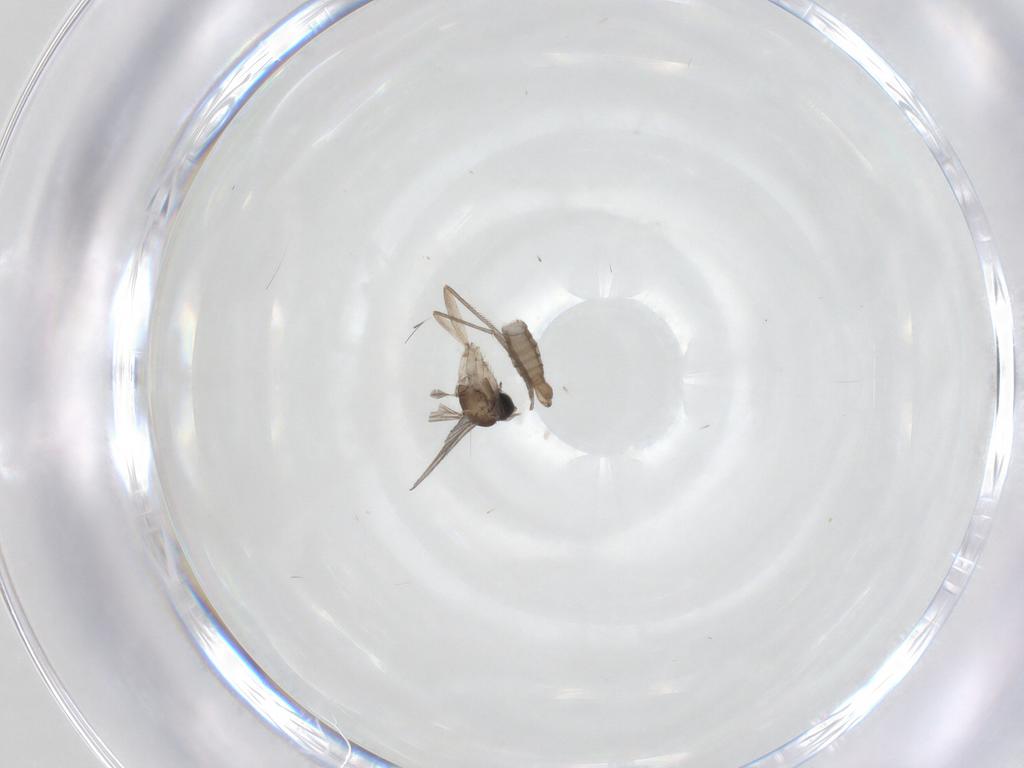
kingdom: Animalia
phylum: Arthropoda
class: Insecta
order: Diptera
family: Sciaridae
